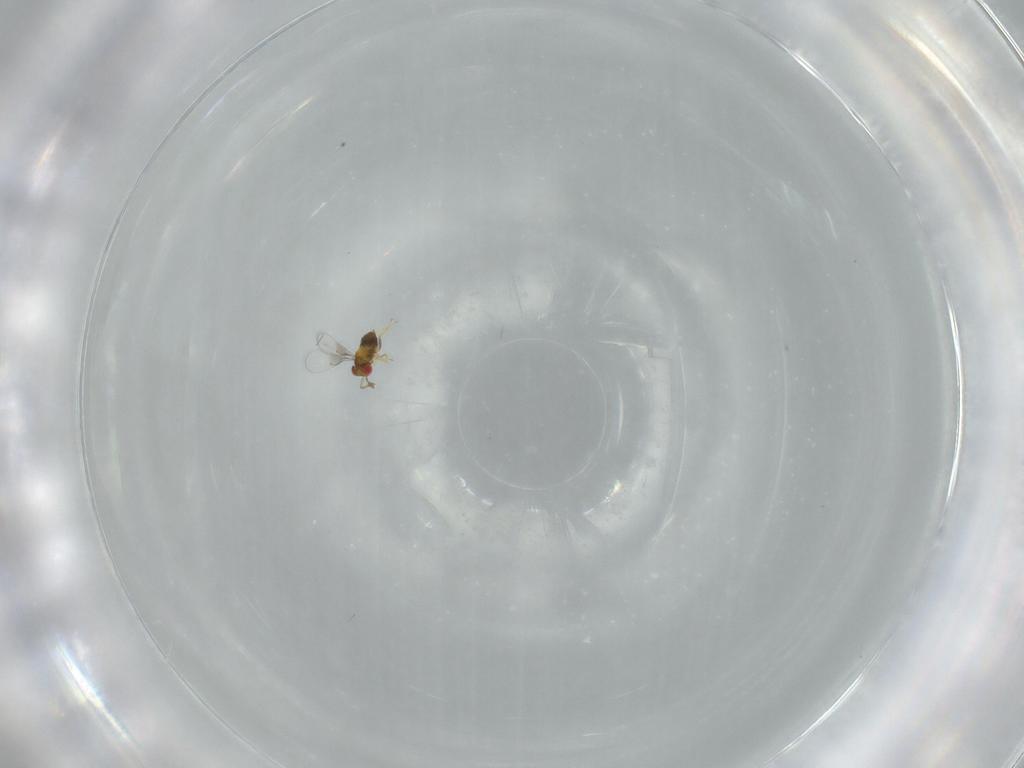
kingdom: Animalia
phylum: Arthropoda
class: Insecta
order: Hymenoptera
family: Trichogrammatidae
